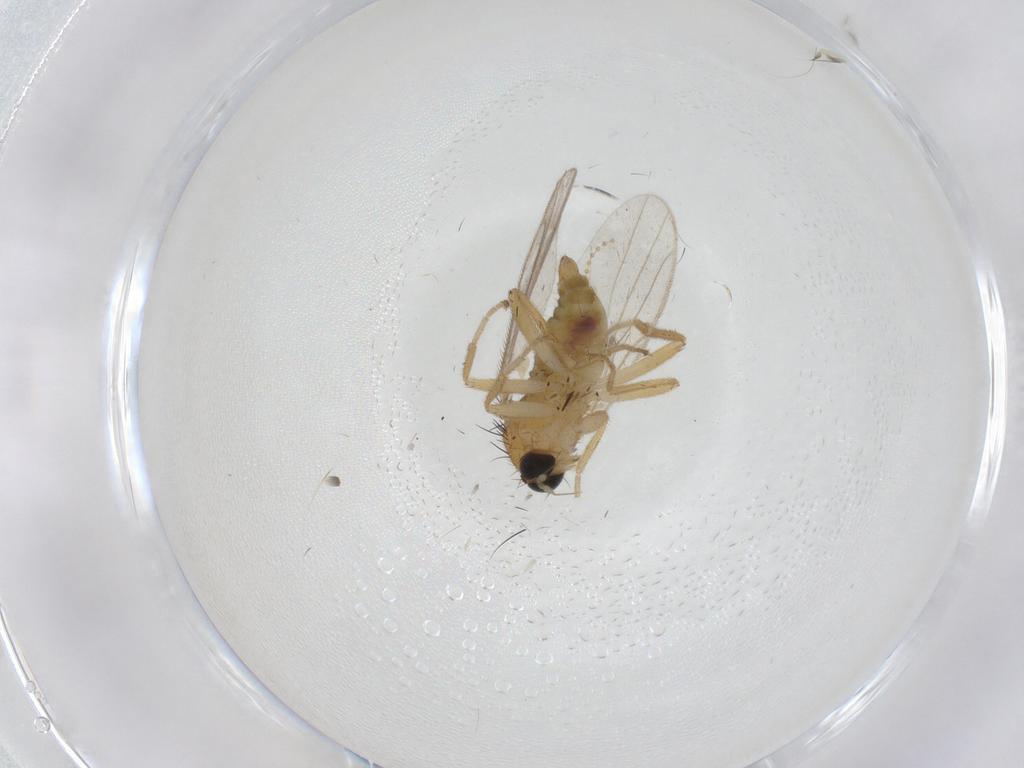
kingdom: Animalia
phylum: Arthropoda
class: Insecta
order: Diptera
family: Hybotidae
